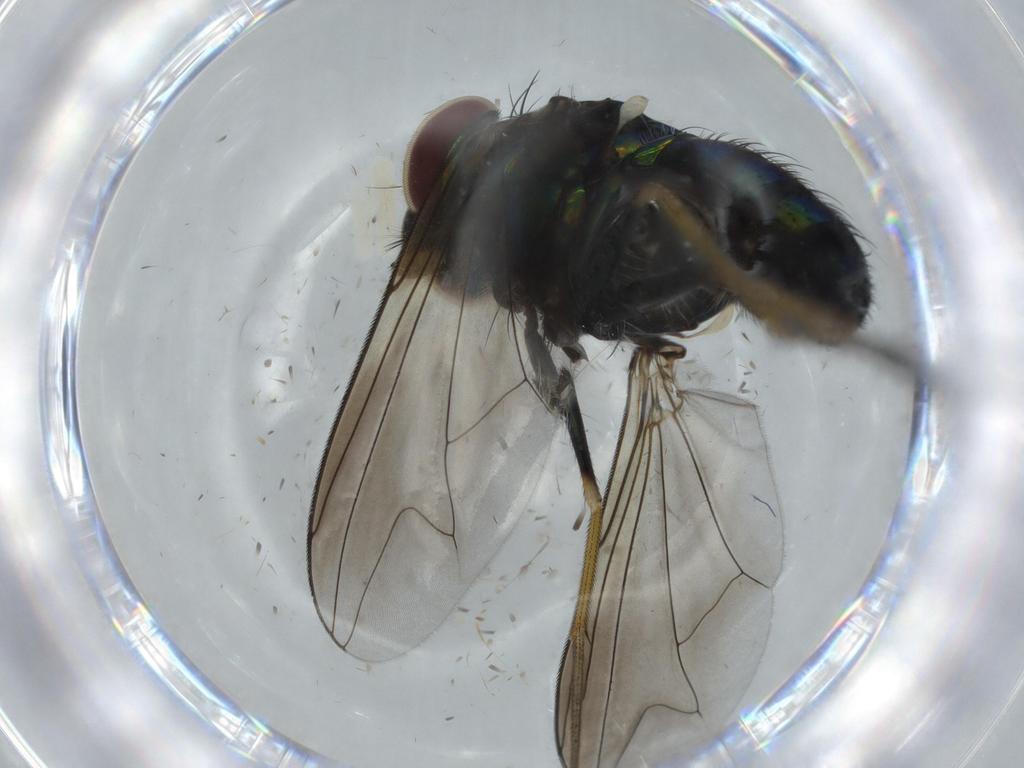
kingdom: Animalia
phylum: Arthropoda
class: Insecta
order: Diptera
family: Dolichopodidae
